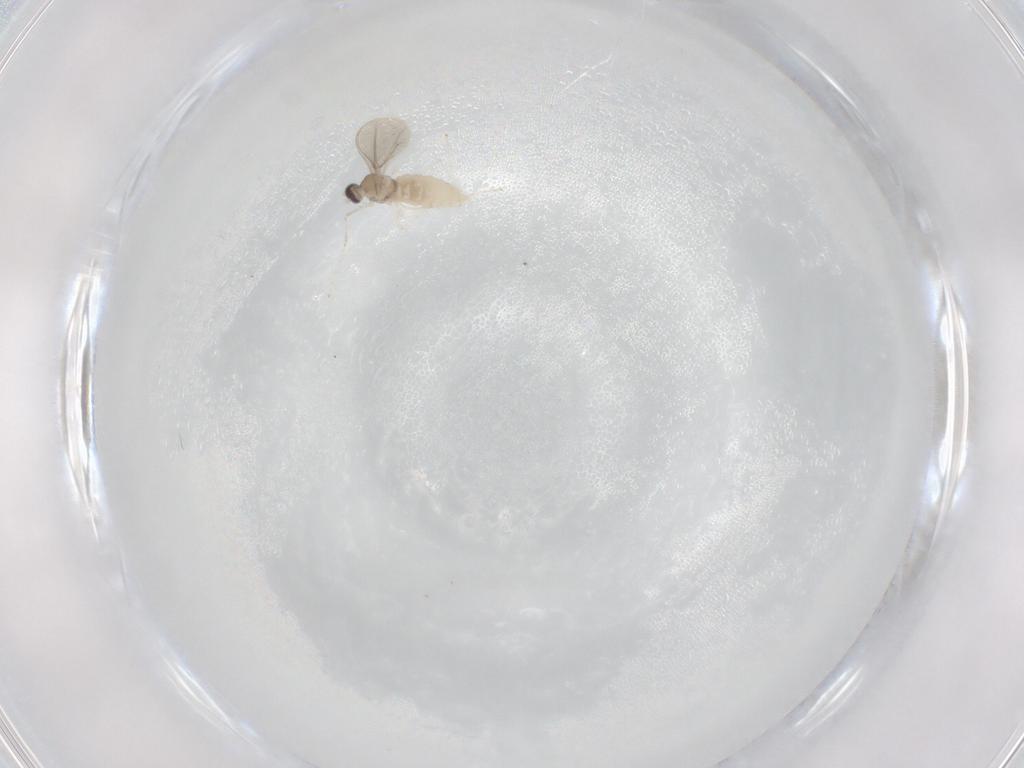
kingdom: Animalia
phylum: Arthropoda
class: Insecta
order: Diptera
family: Cecidomyiidae
